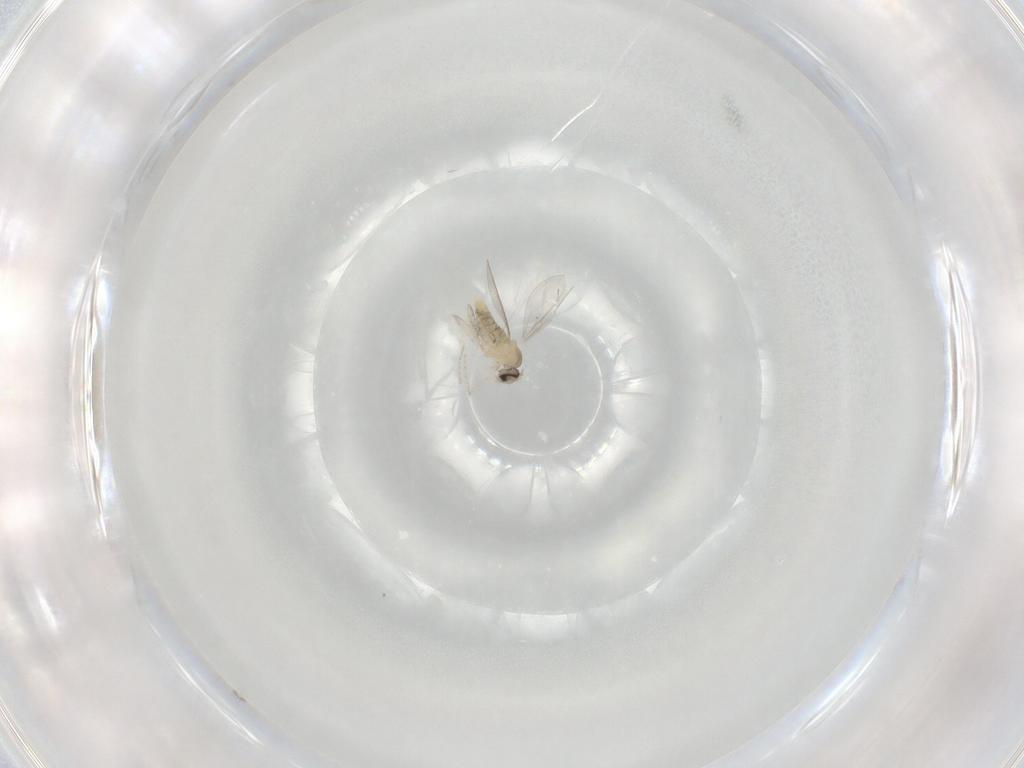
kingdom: Animalia
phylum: Arthropoda
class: Insecta
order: Diptera
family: Cecidomyiidae
